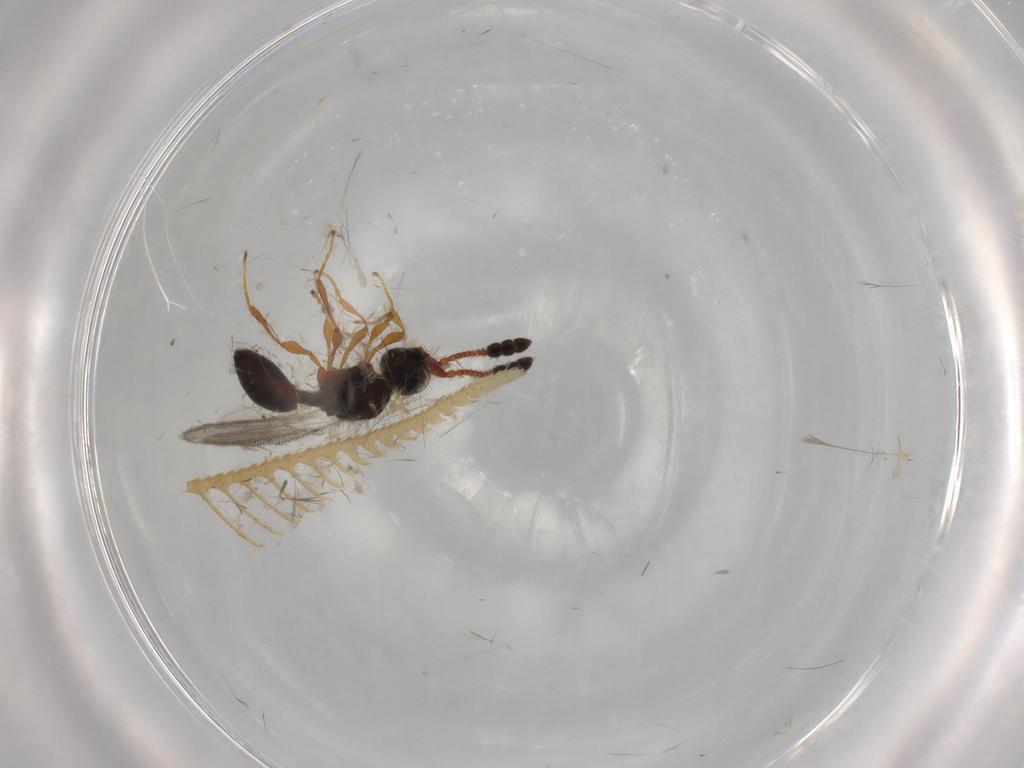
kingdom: Animalia
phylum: Arthropoda
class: Insecta
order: Hymenoptera
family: Diapriidae
